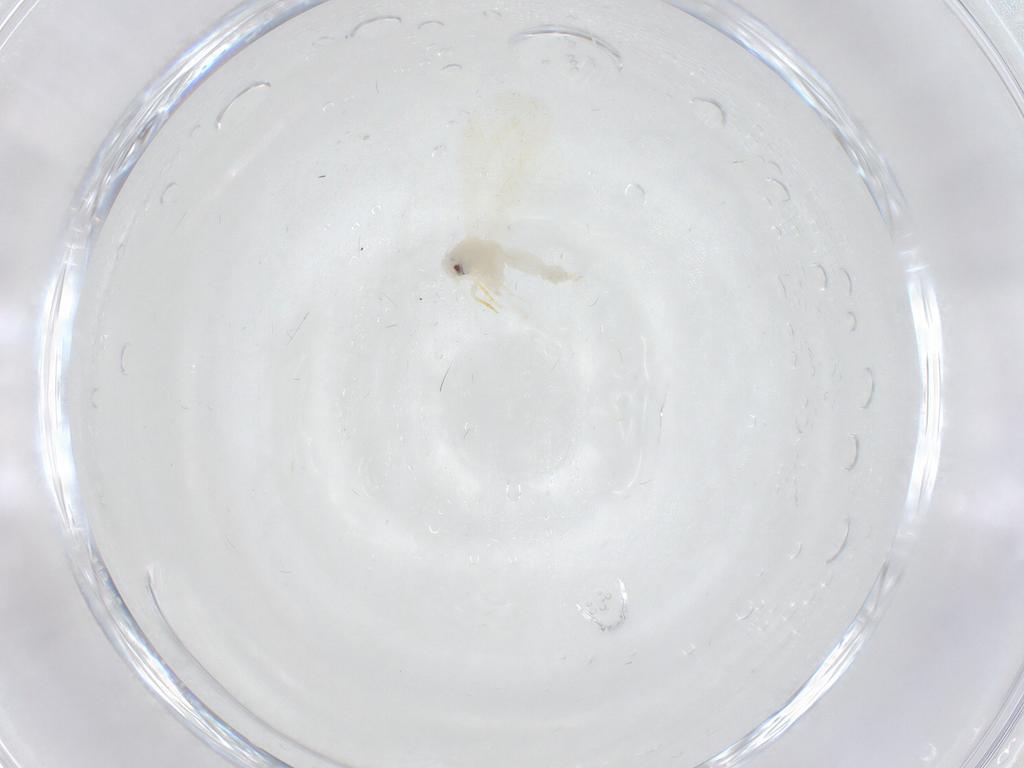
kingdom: Animalia
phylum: Arthropoda
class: Insecta
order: Hemiptera
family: Aleyrodidae
